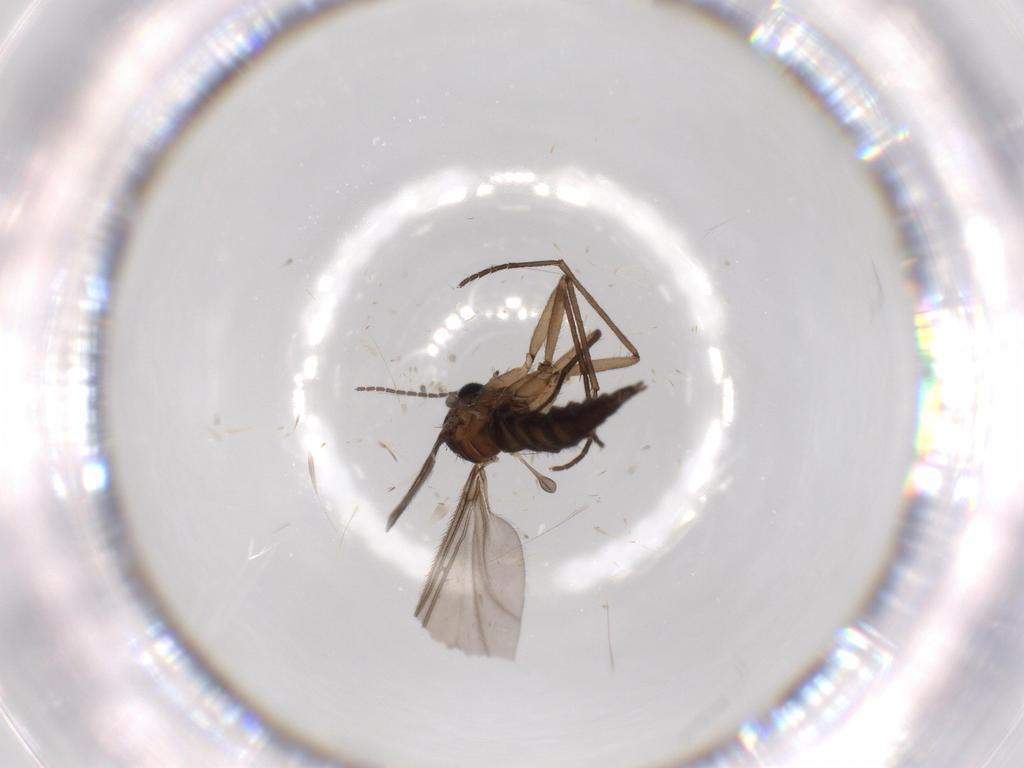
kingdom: Animalia
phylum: Arthropoda
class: Insecta
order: Diptera
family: Sciaridae
